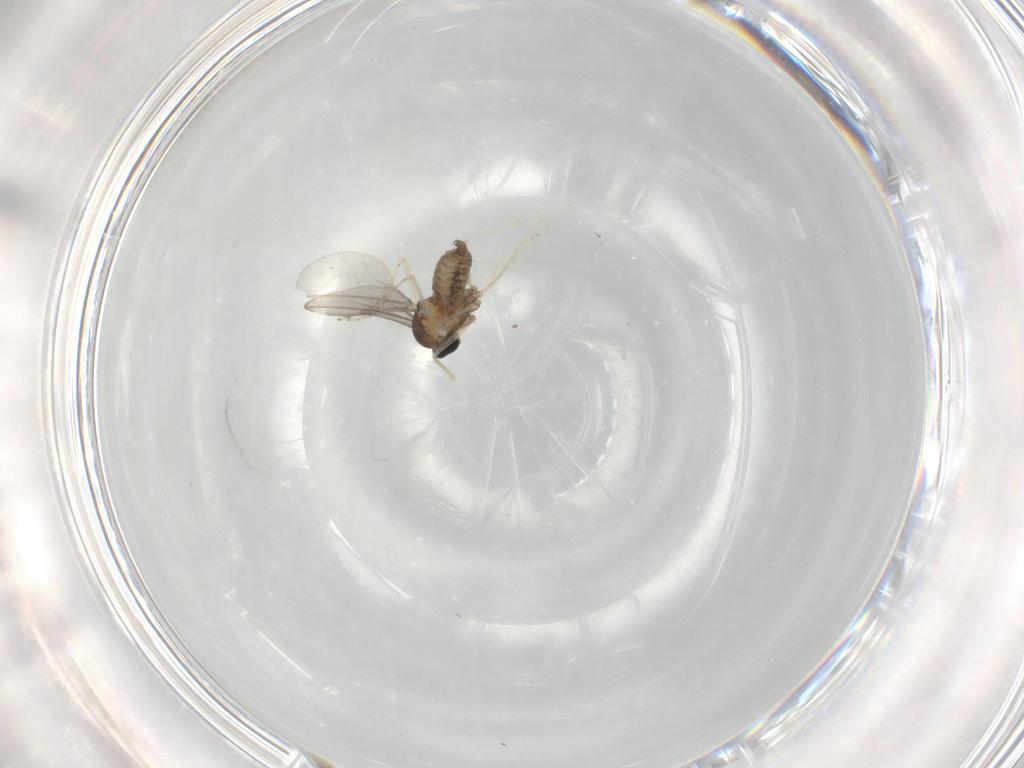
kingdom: Animalia
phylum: Arthropoda
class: Insecta
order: Diptera
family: Cecidomyiidae
